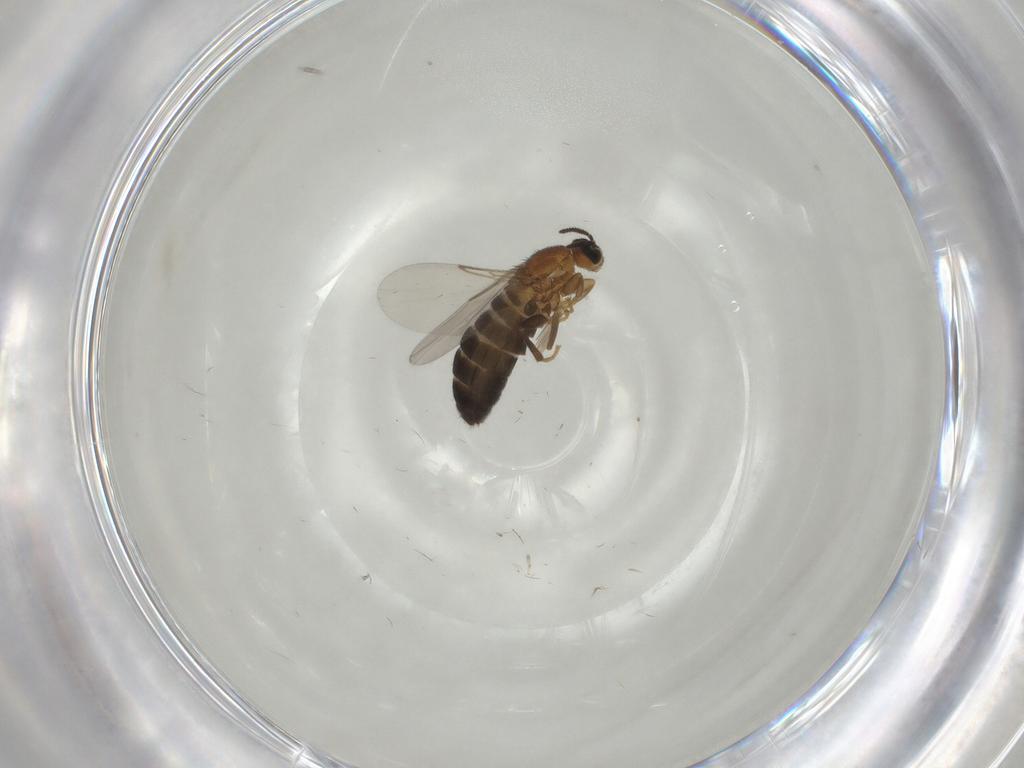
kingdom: Animalia
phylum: Arthropoda
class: Insecta
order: Diptera
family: Scatopsidae
